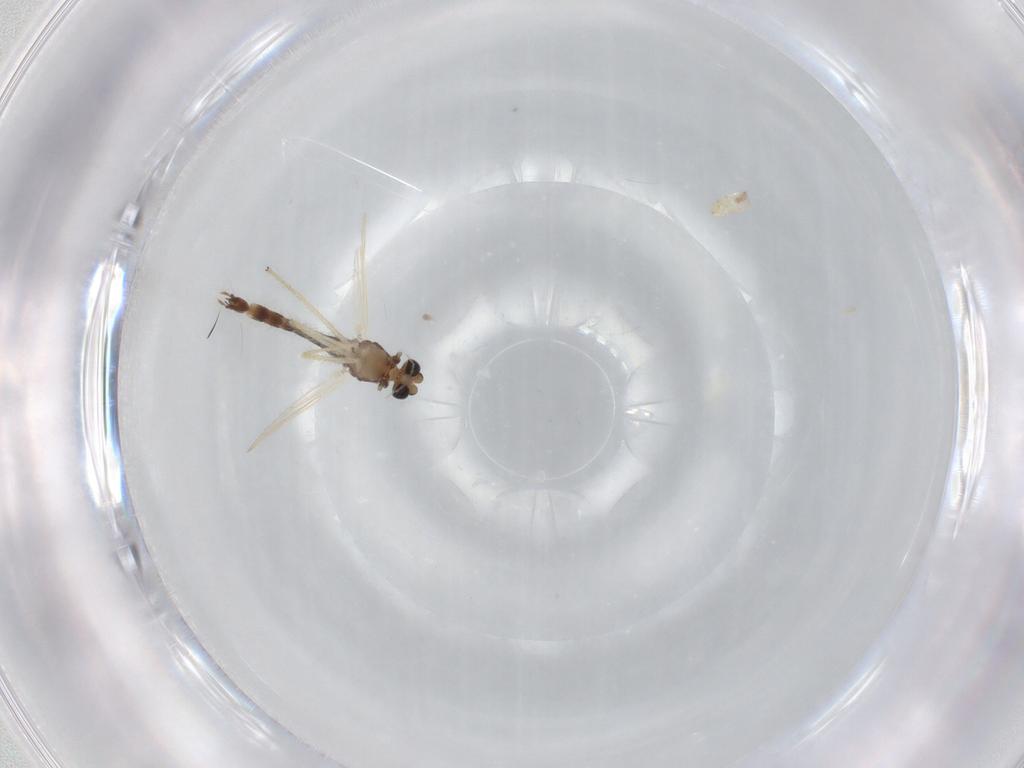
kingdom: Animalia
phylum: Arthropoda
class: Insecta
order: Diptera
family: Chironomidae
